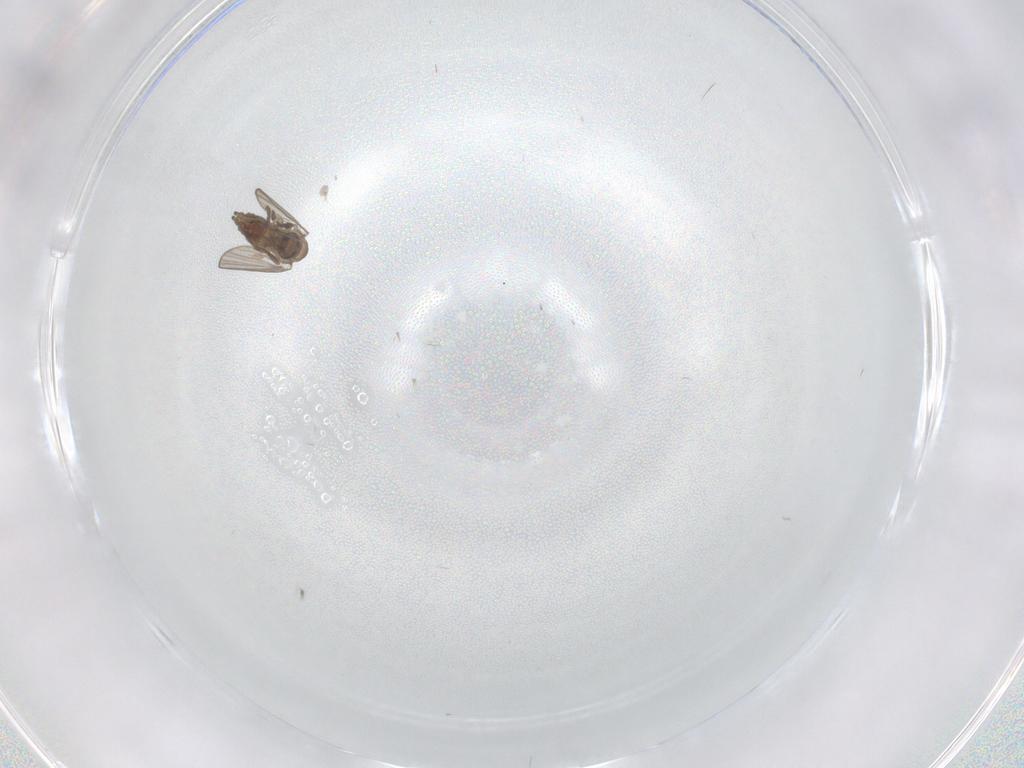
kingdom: Animalia
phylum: Arthropoda
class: Insecta
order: Diptera
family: Psychodidae
